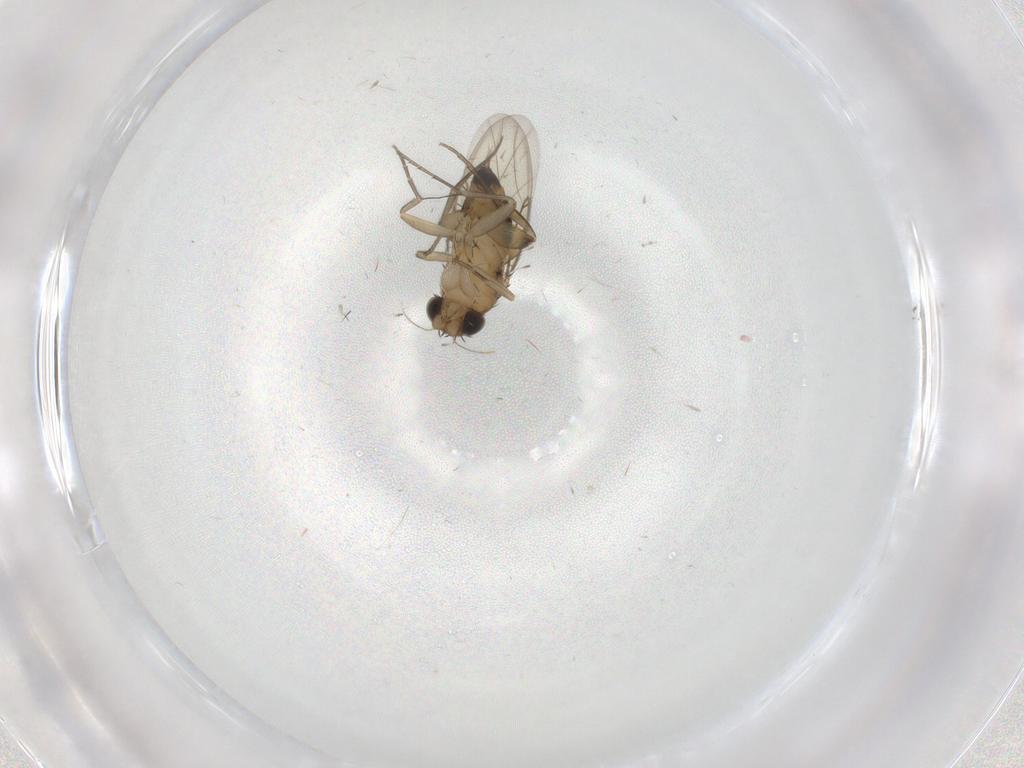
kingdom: Animalia
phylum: Arthropoda
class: Insecta
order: Diptera
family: Phoridae
